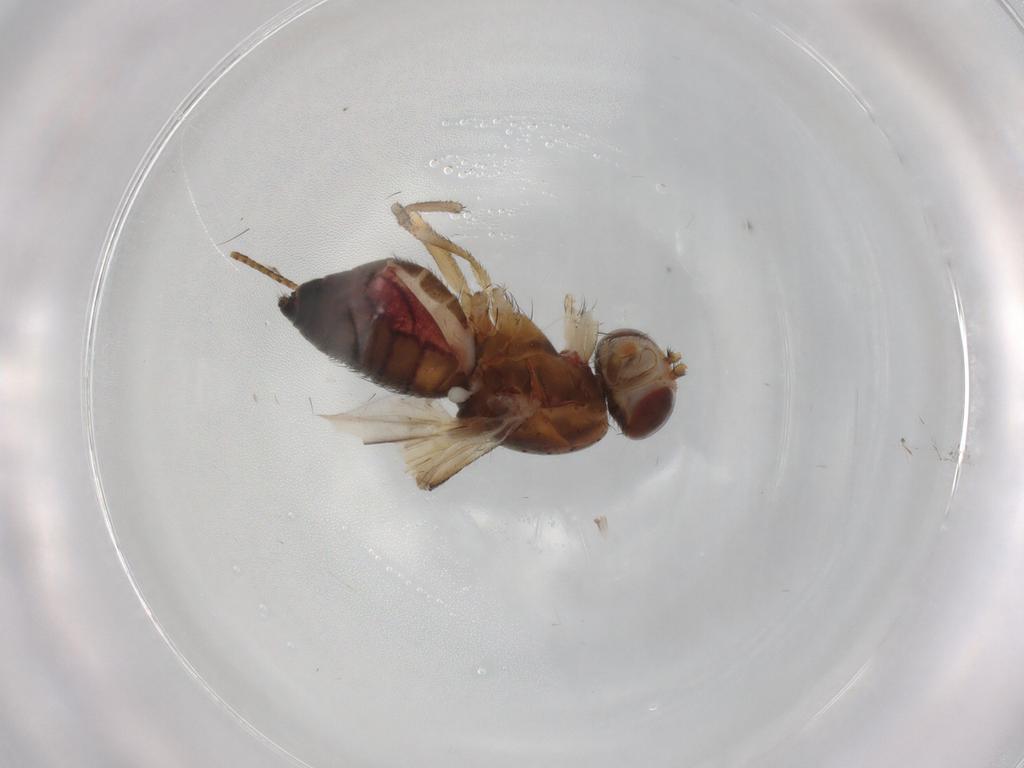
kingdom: Animalia
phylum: Arthropoda
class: Insecta
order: Diptera
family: Heleomyzidae
